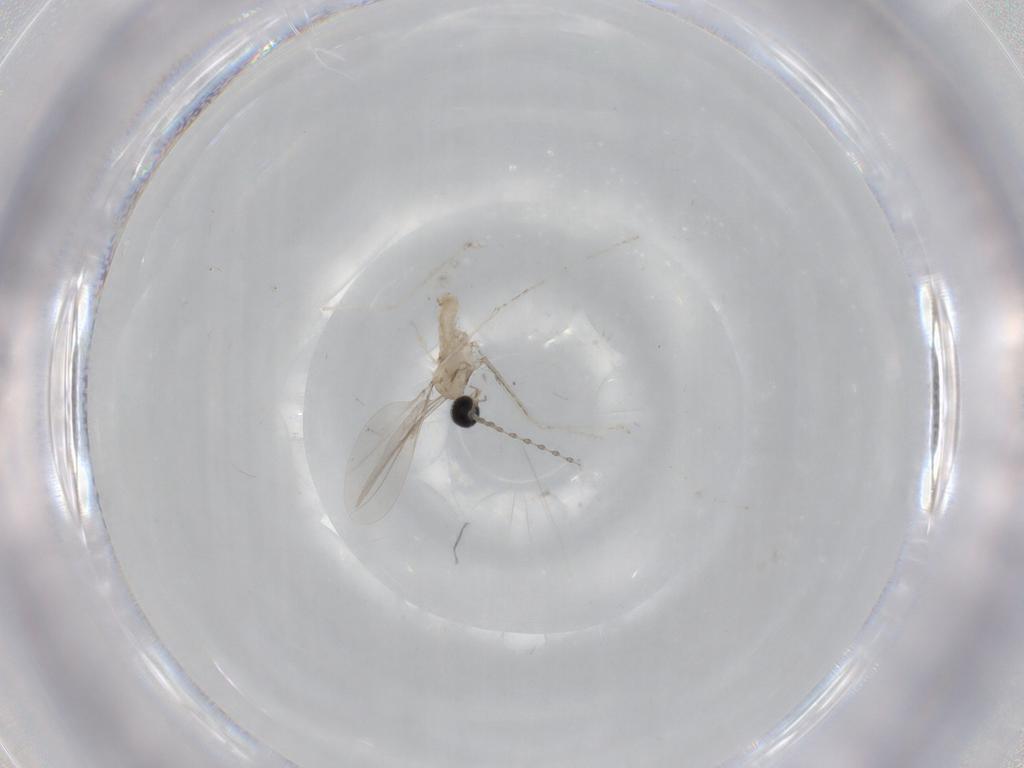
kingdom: Animalia
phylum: Arthropoda
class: Insecta
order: Diptera
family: Cecidomyiidae
